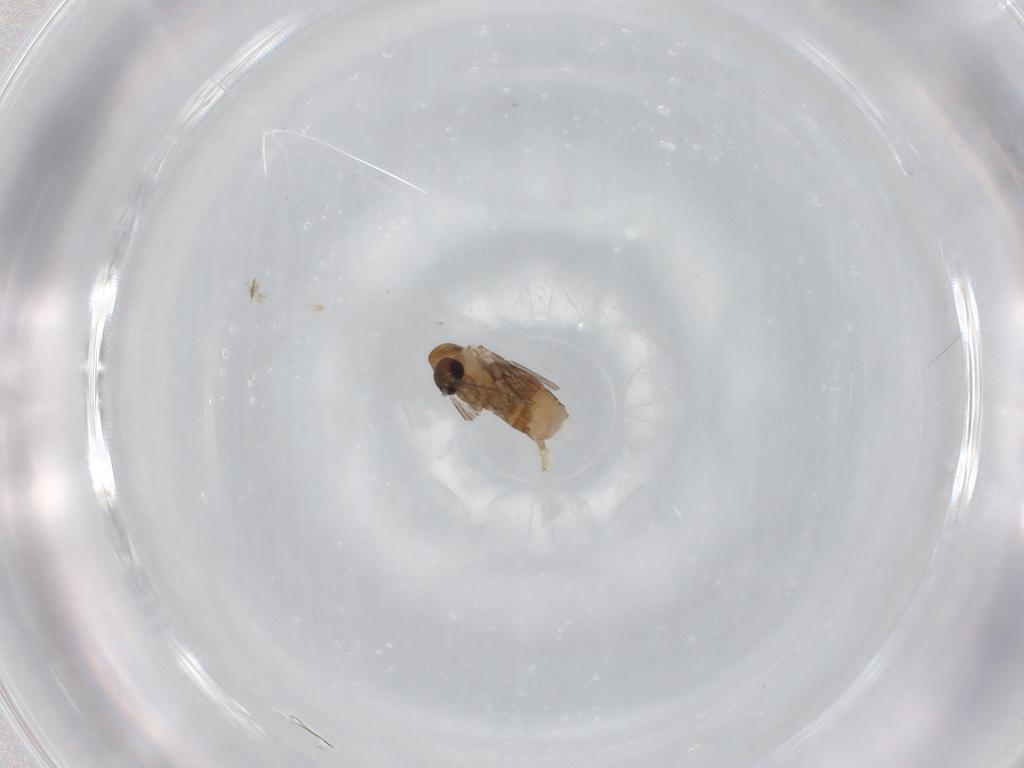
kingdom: Animalia
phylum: Arthropoda
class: Insecta
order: Diptera
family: Psychodidae
